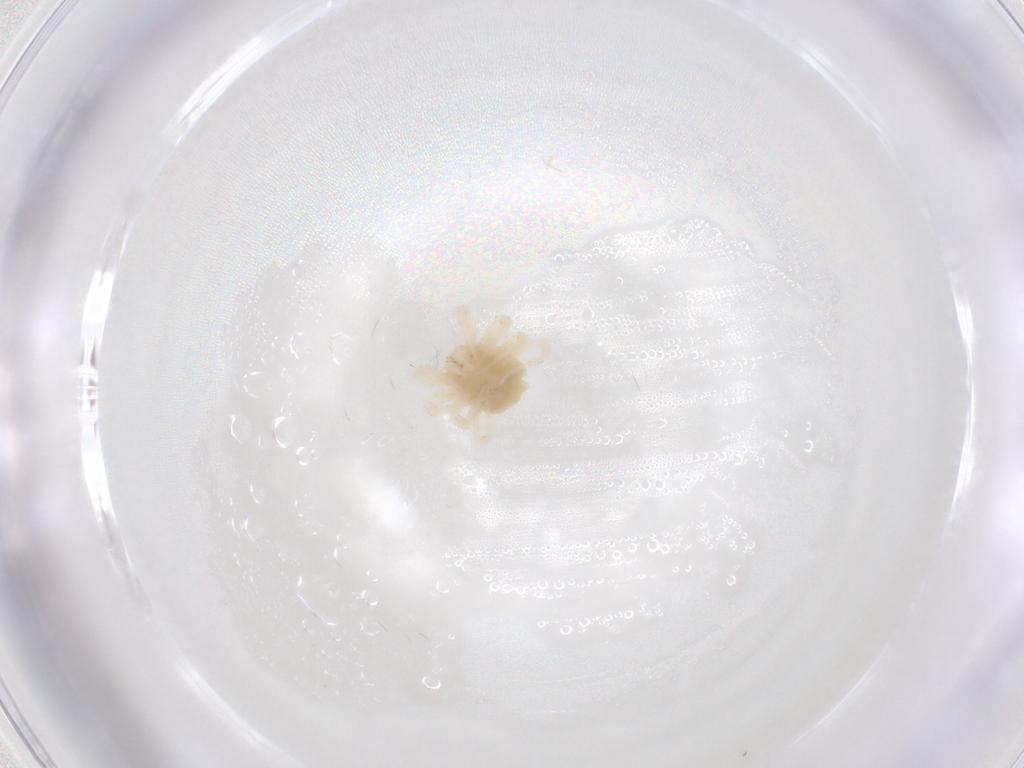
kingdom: Animalia
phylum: Arthropoda
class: Arachnida
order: Trombidiformes
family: Anystidae
